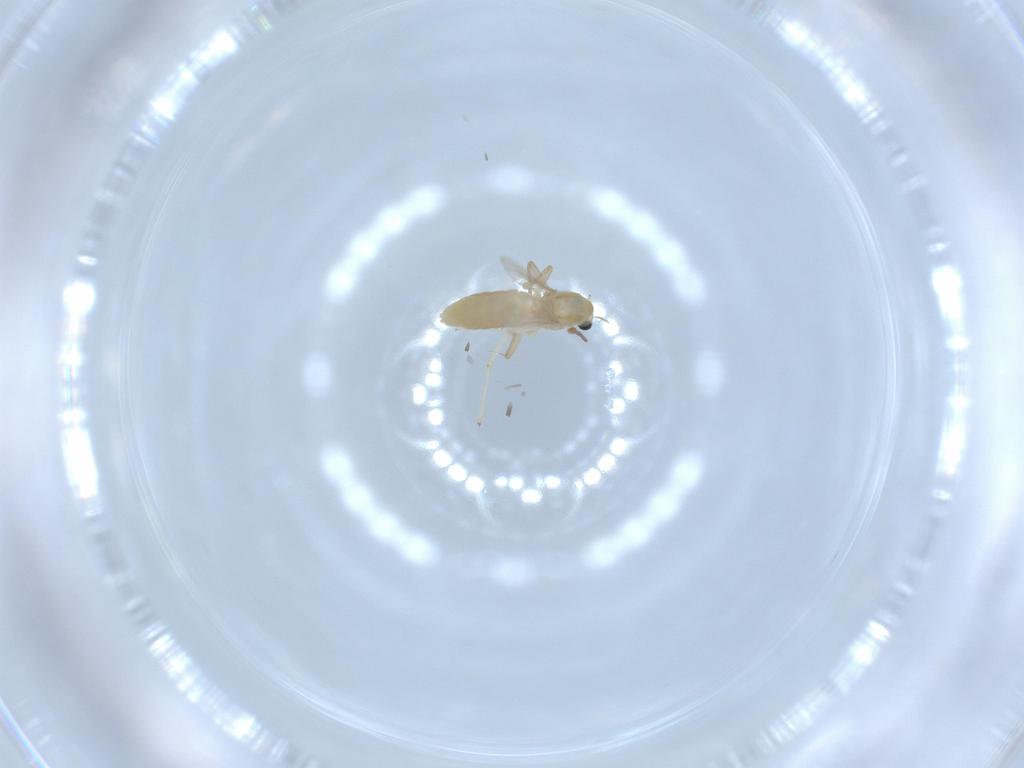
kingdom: Animalia
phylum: Arthropoda
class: Insecta
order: Diptera
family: Chironomidae
